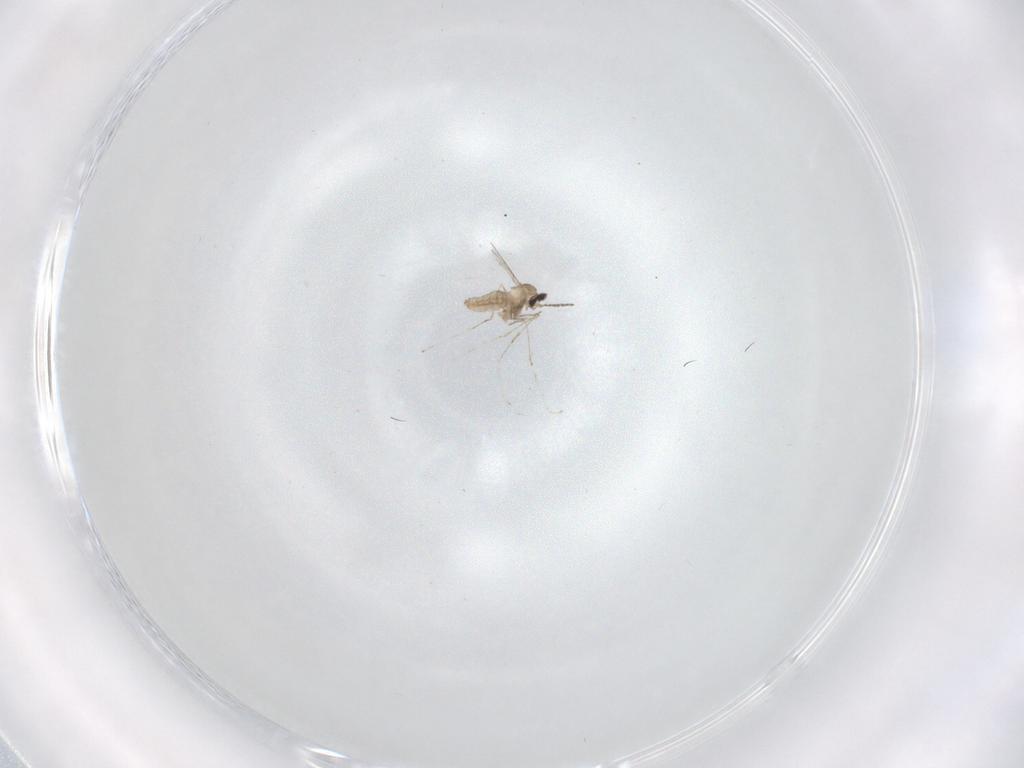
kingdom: Animalia
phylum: Arthropoda
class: Insecta
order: Diptera
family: Cecidomyiidae
